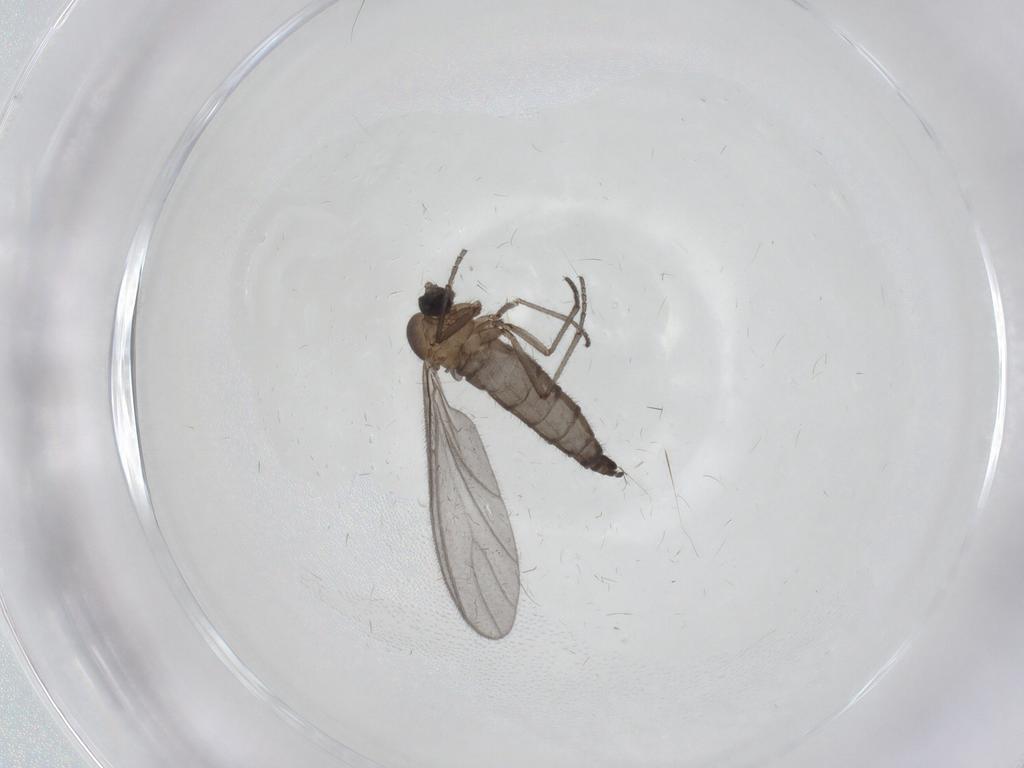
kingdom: Animalia
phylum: Arthropoda
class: Insecta
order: Diptera
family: Sciaridae
